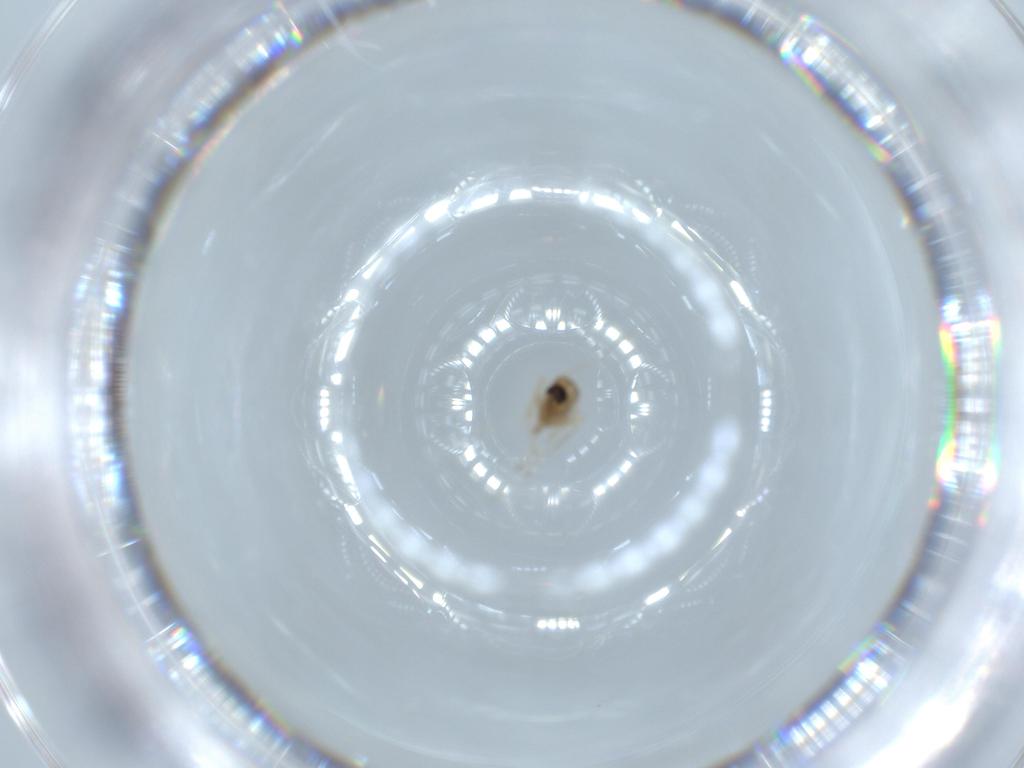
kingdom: Animalia
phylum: Arthropoda
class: Insecta
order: Diptera
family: Cecidomyiidae
